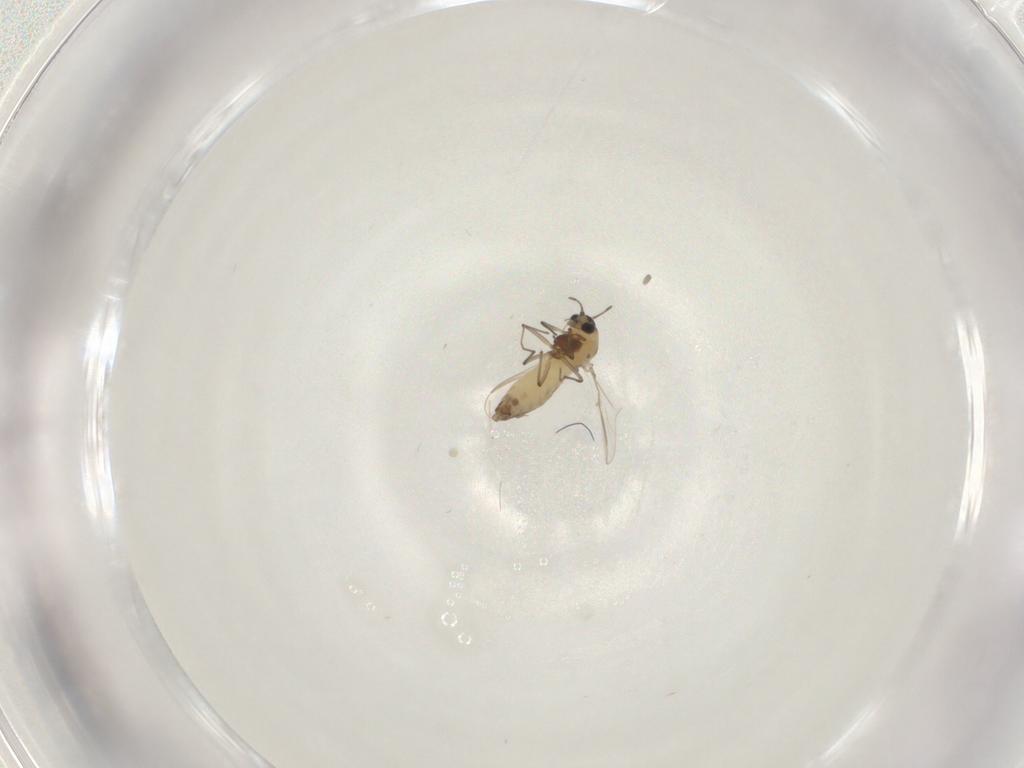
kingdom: Animalia
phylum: Arthropoda
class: Insecta
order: Diptera
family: Chironomidae
